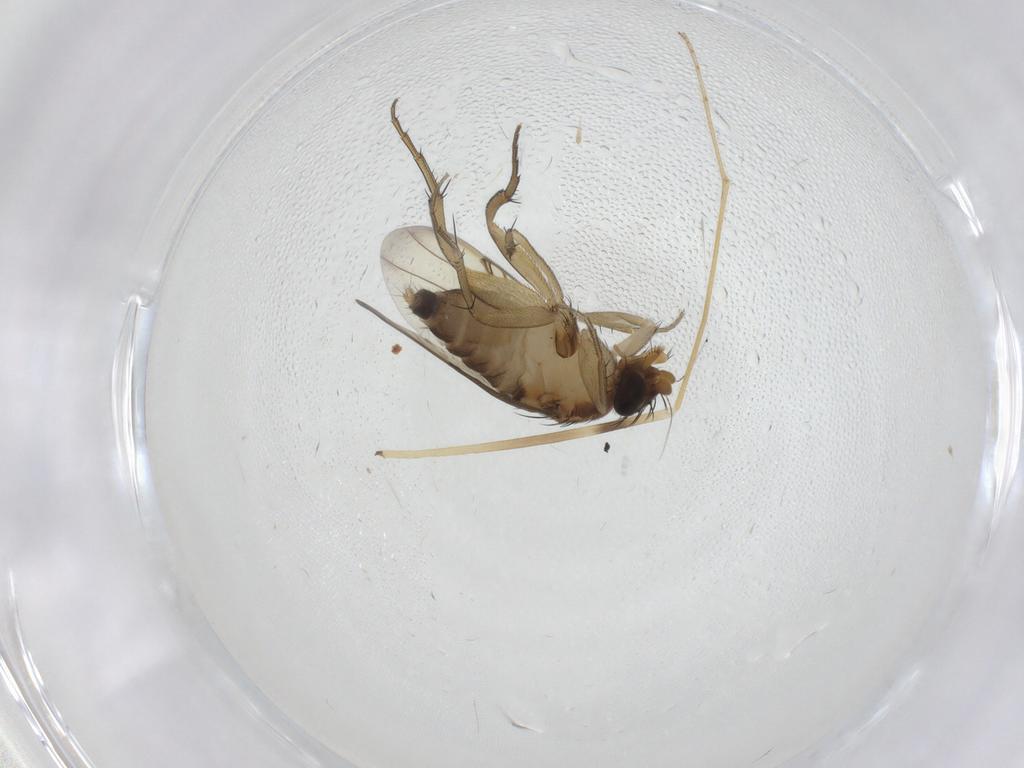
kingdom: Animalia
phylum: Arthropoda
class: Insecta
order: Diptera
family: Phoridae
